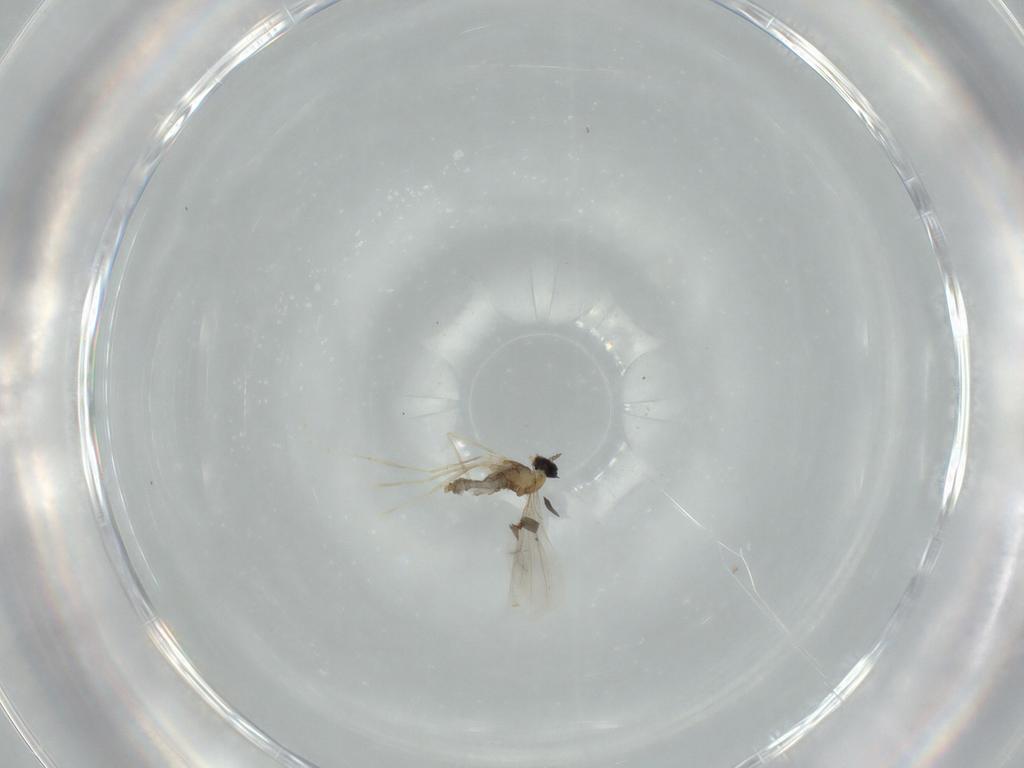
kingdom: Animalia
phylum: Arthropoda
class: Insecta
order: Diptera
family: Cecidomyiidae
